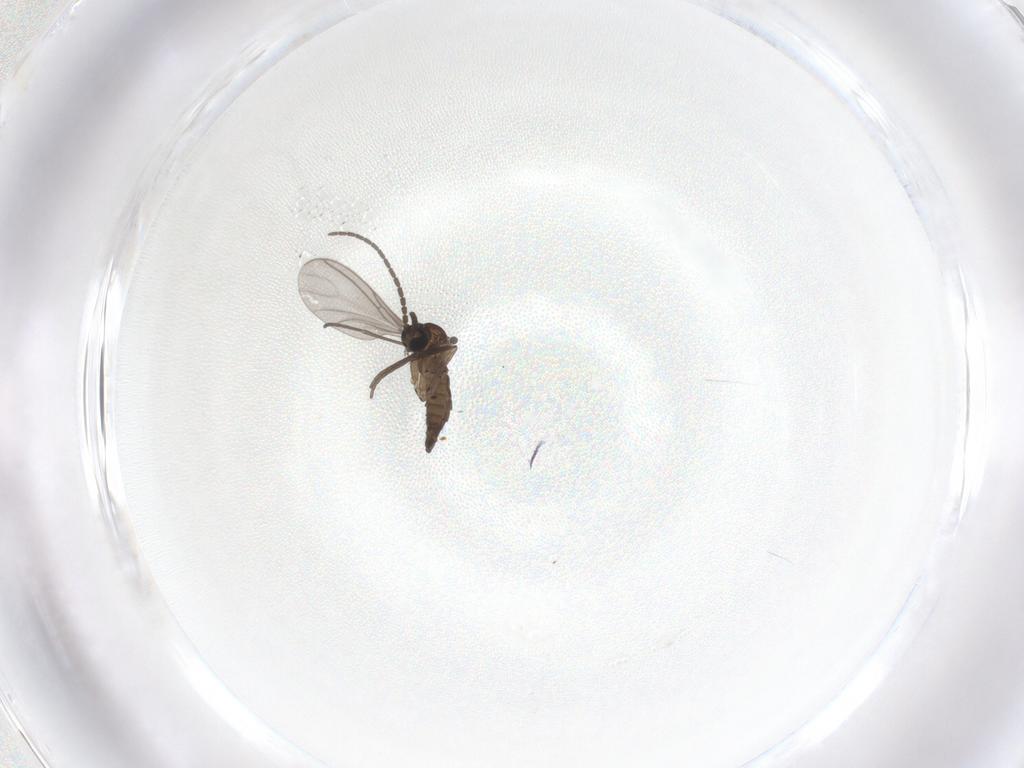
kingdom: Animalia
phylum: Arthropoda
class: Insecta
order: Diptera
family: Sciaridae
